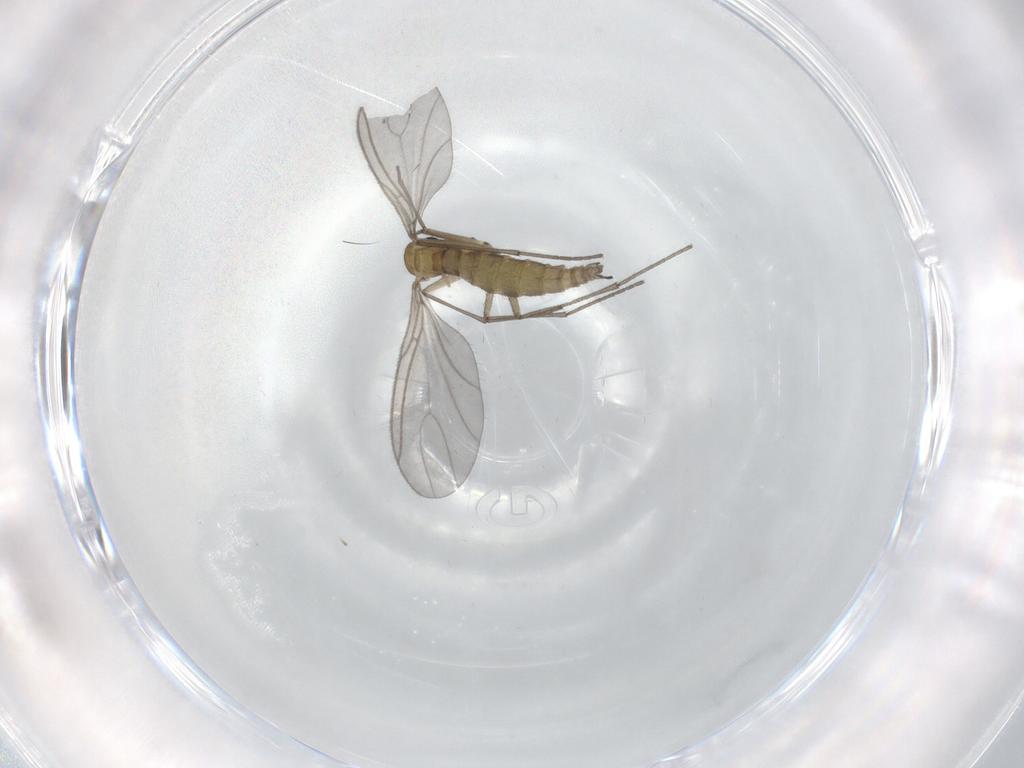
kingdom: Animalia
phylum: Arthropoda
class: Insecta
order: Diptera
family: Sciaridae
